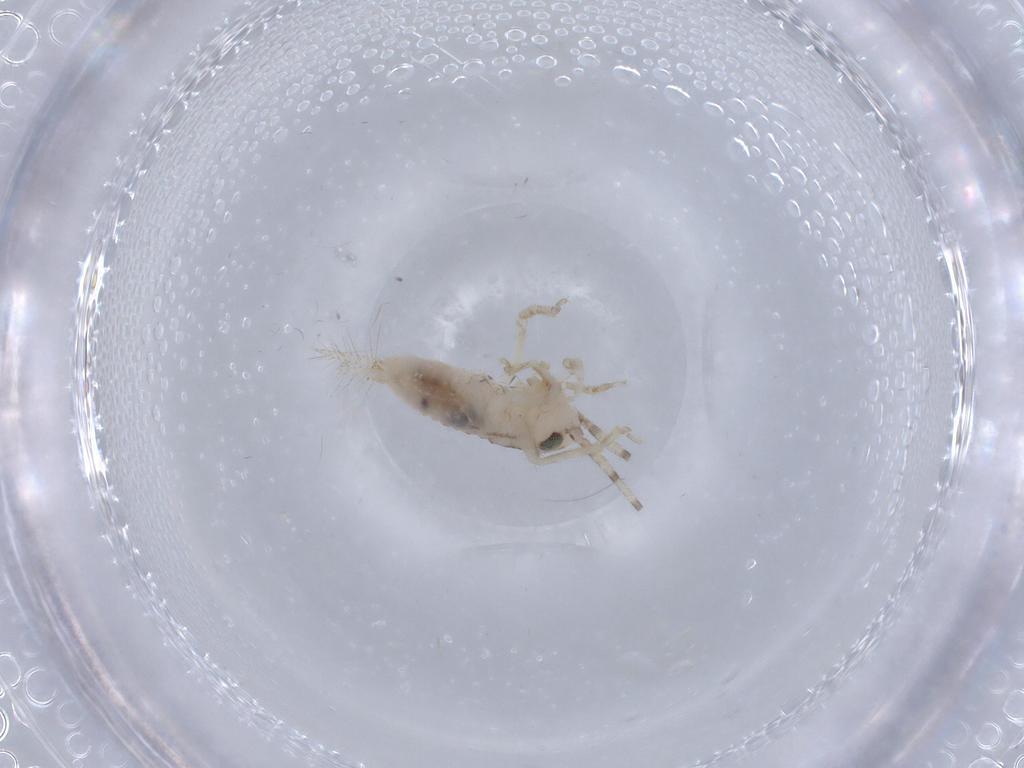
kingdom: Animalia
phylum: Arthropoda
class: Insecta
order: Orthoptera
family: Trigonidiidae
